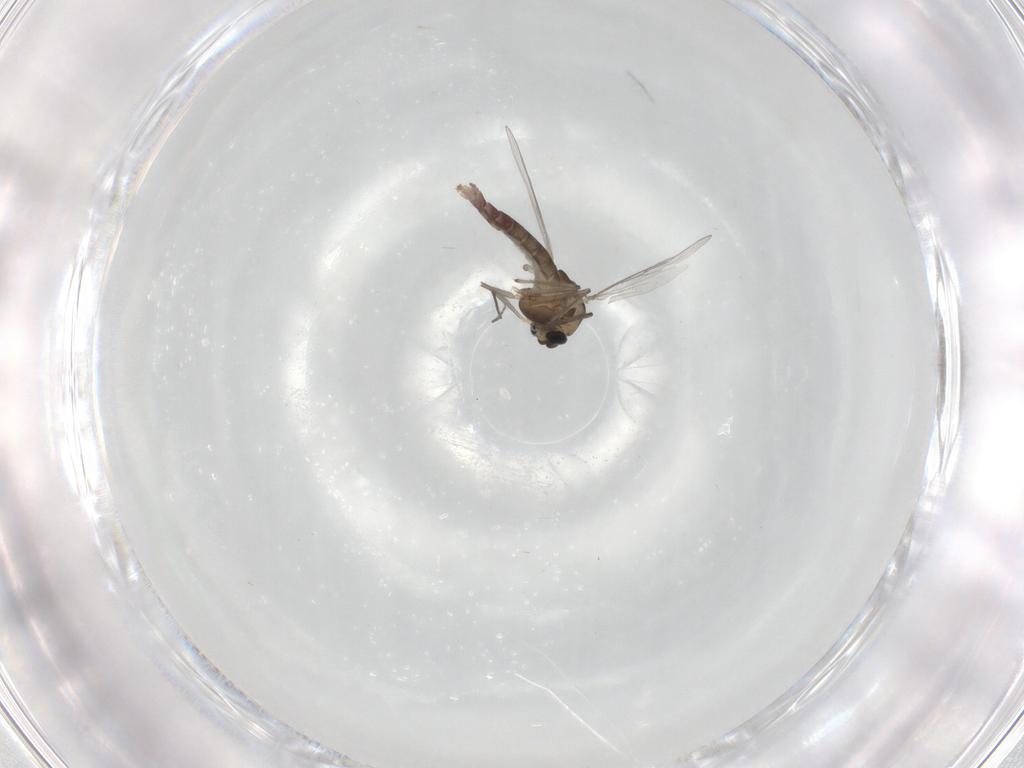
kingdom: Animalia
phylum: Arthropoda
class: Insecta
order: Diptera
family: Chironomidae
